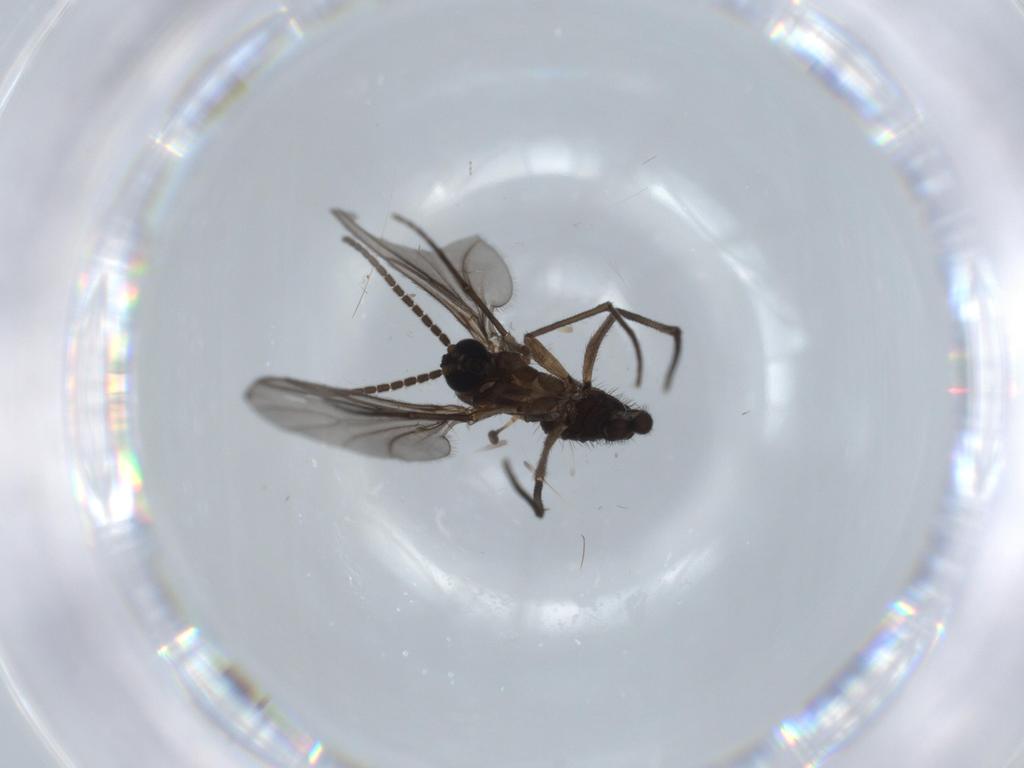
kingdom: Animalia
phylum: Arthropoda
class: Insecta
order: Diptera
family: Sciaridae
